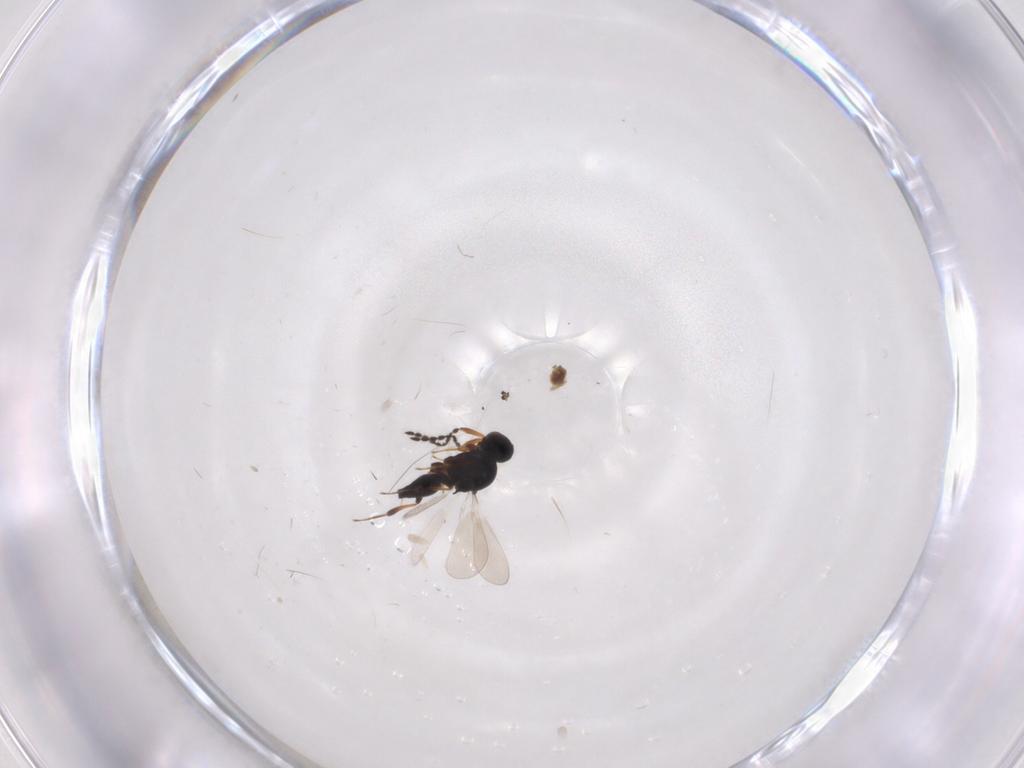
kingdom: Animalia
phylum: Arthropoda
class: Insecta
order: Hymenoptera
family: Platygastridae
